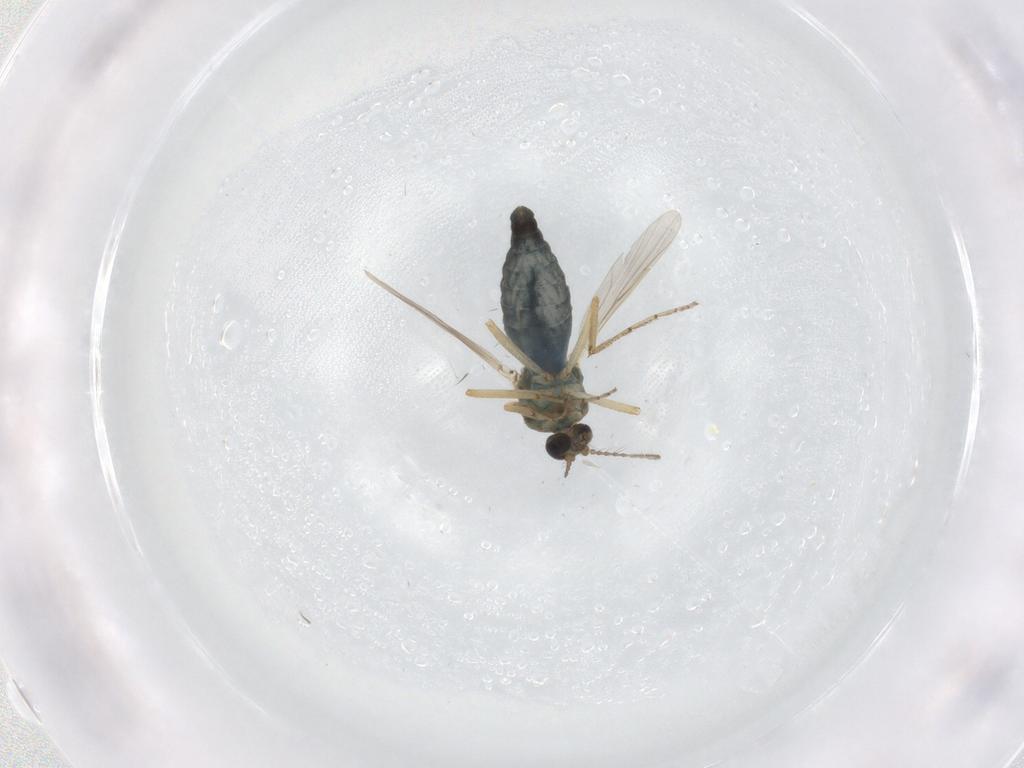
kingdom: Animalia
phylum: Arthropoda
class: Insecta
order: Diptera
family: Ceratopogonidae
